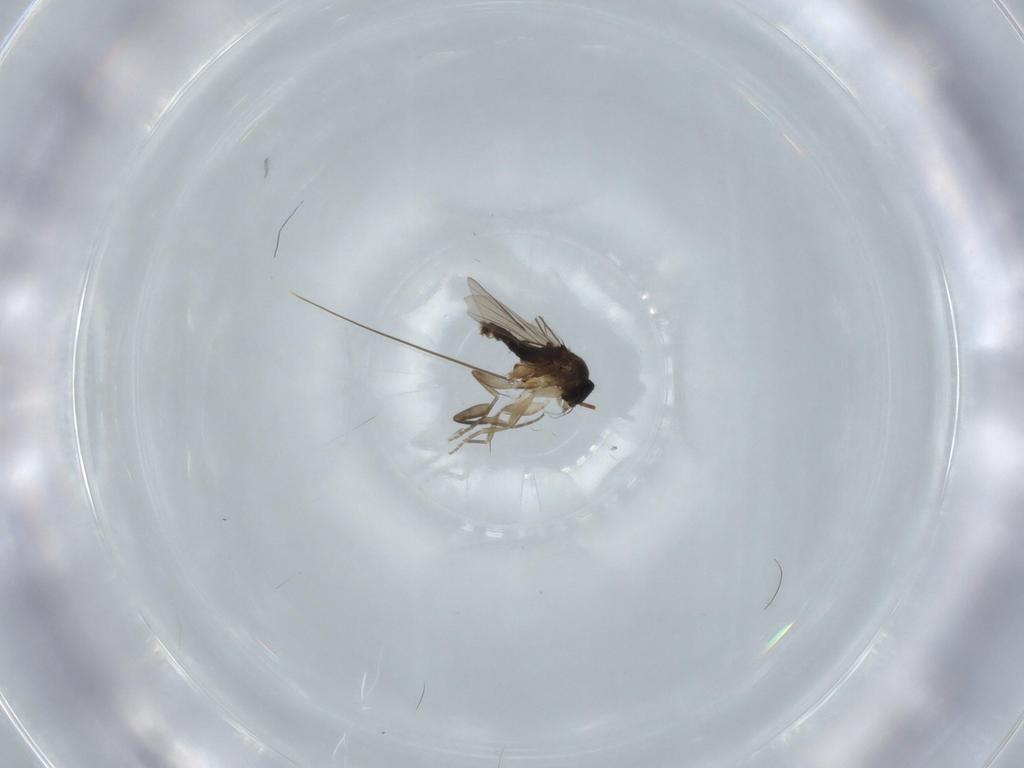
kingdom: Animalia
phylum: Arthropoda
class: Insecta
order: Diptera
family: Phoridae
